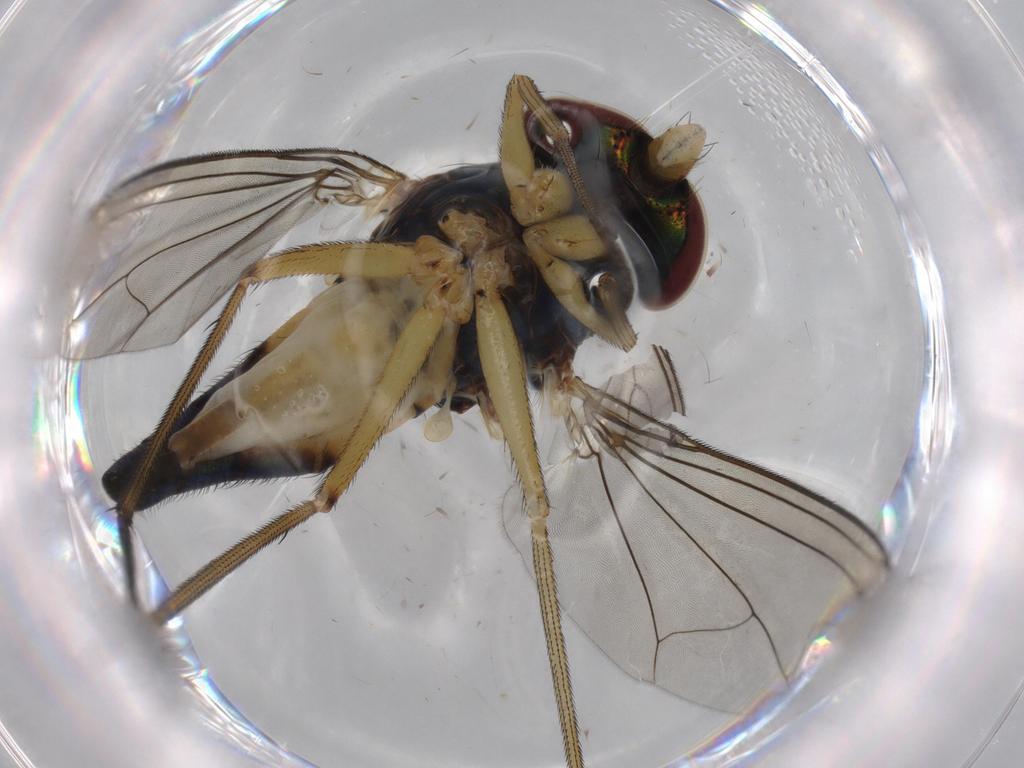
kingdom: Animalia
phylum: Arthropoda
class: Insecta
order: Diptera
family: Dolichopodidae
